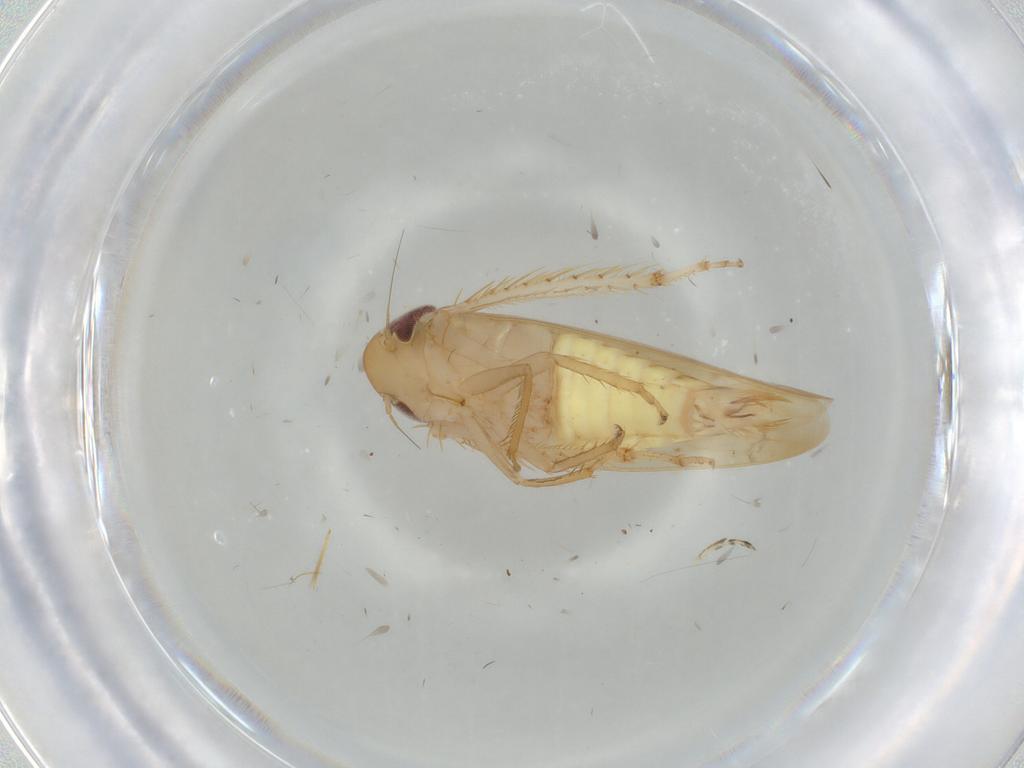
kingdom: Animalia
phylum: Arthropoda
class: Insecta
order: Hemiptera
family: Cicadellidae
